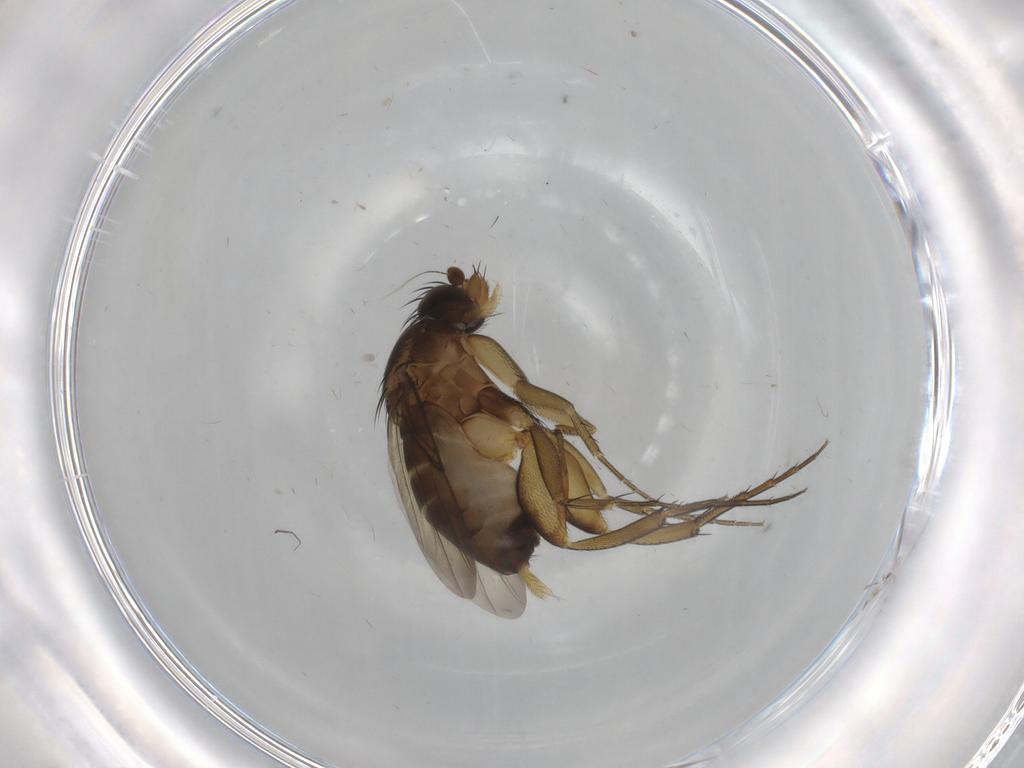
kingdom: Animalia
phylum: Arthropoda
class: Insecta
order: Diptera
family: Phoridae
